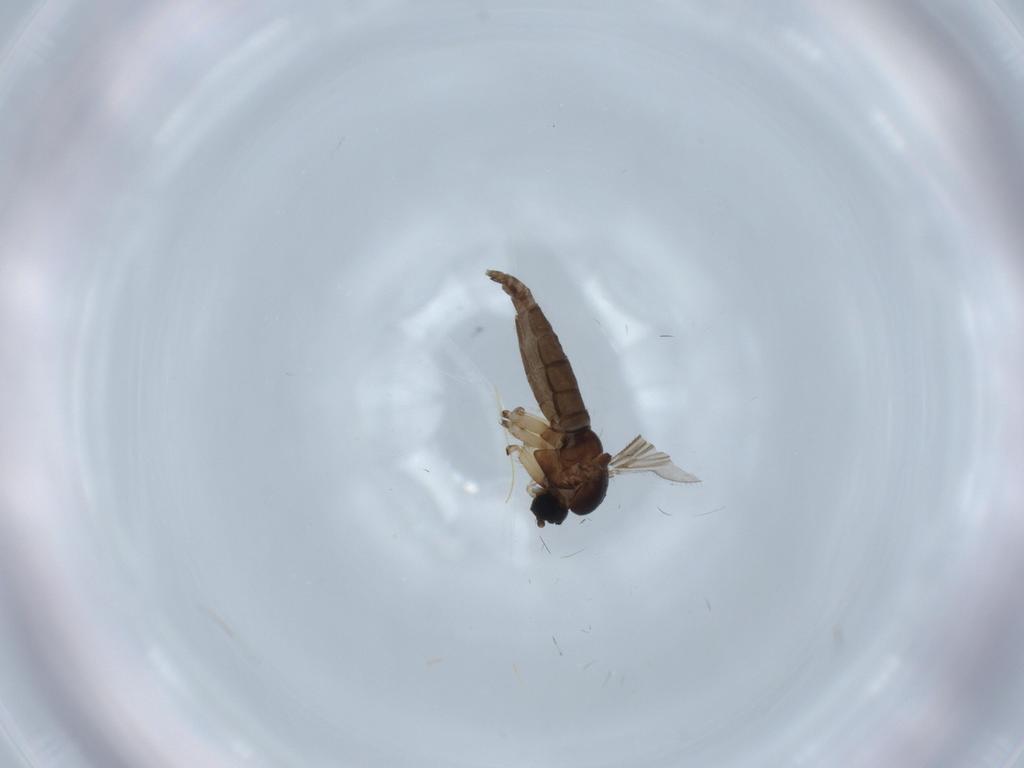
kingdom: Animalia
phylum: Arthropoda
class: Insecta
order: Diptera
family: Sciaridae
